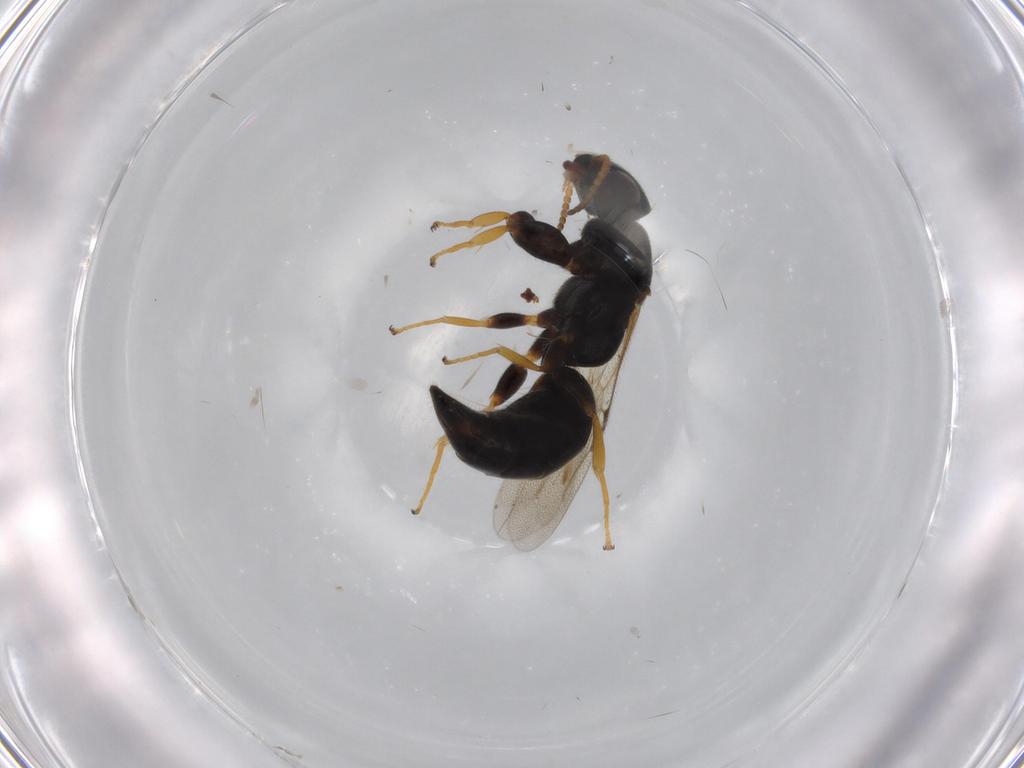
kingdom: Animalia
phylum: Arthropoda
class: Insecta
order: Hymenoptera
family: Bethylidae
